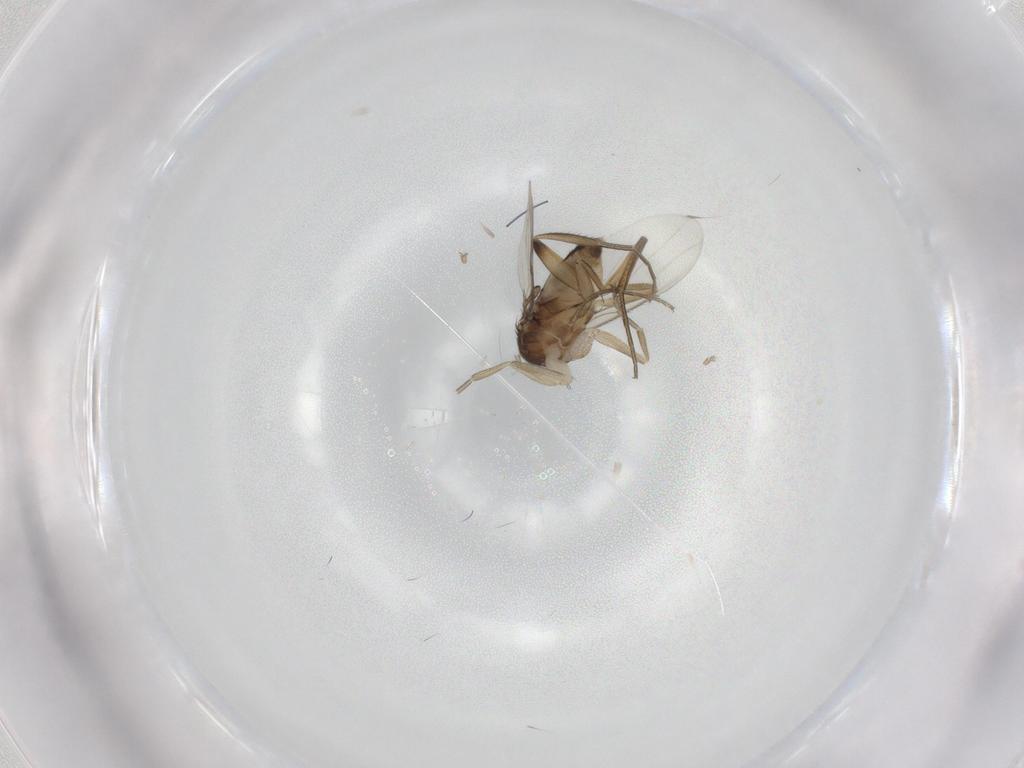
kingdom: Animalia
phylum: Arthropoda
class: Insecta
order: Diptera
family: Phoridae
